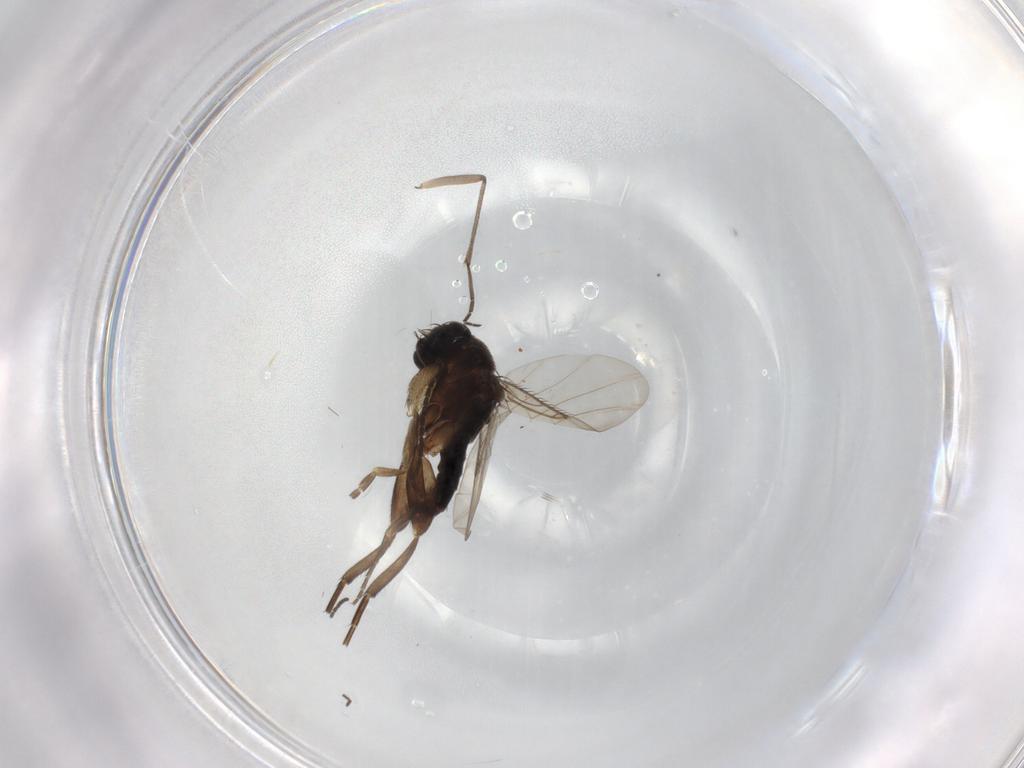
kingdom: Animalia
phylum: Arthropoda
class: Insecta
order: Diptera
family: Phoridae
